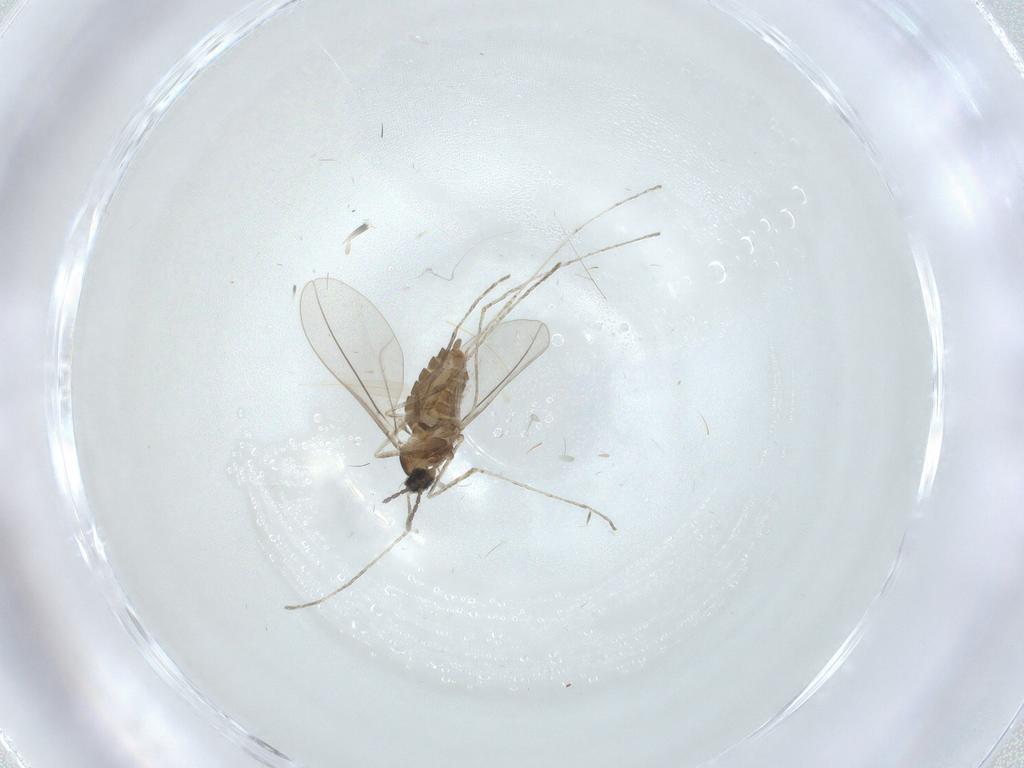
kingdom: Animalia
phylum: Arthropoda
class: Insecta
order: Diptera
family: Cecidomyiidae
